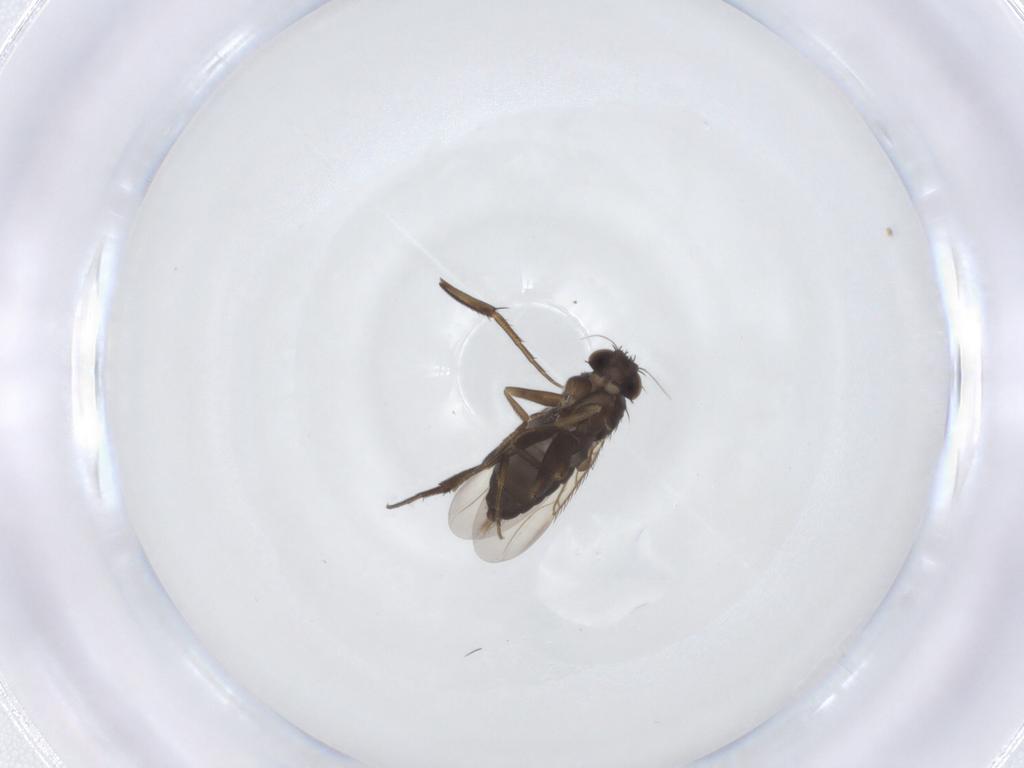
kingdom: Animalia
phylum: Arthropoda
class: Insecta
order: Diptera
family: Phoridae
